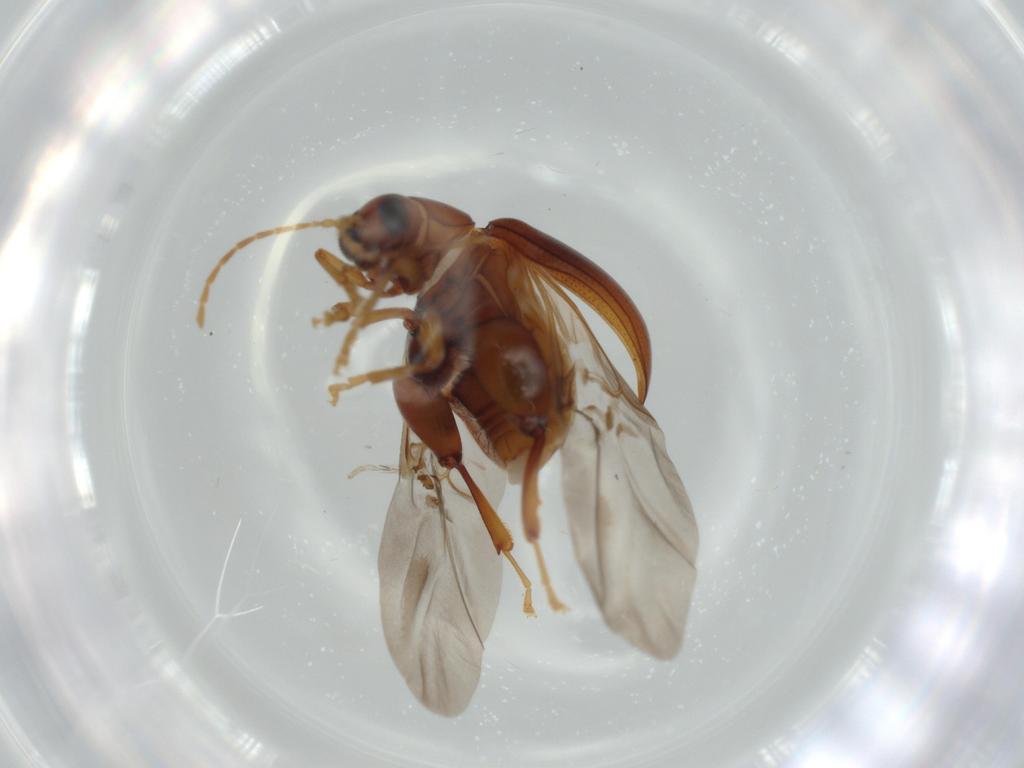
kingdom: Animalia
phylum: Arthropoda
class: Insecta
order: Coleoptera
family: Chrysomelidae
